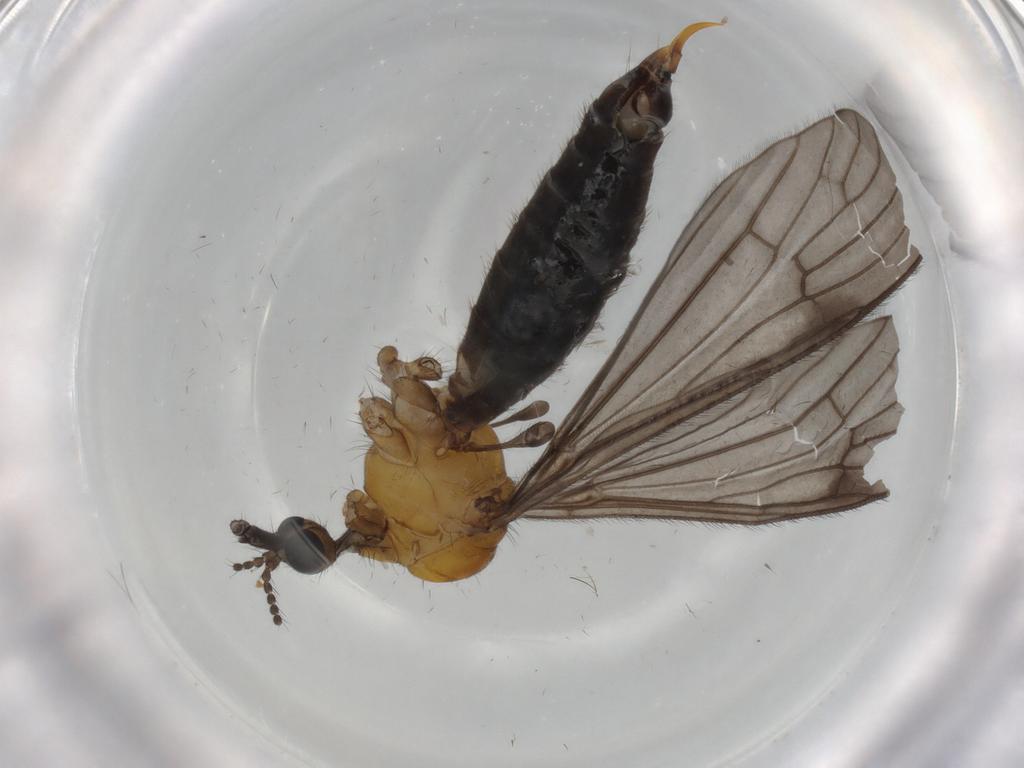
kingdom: Animalia
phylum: Arthropoda
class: Insecta
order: Diptera
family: Limoniidae
